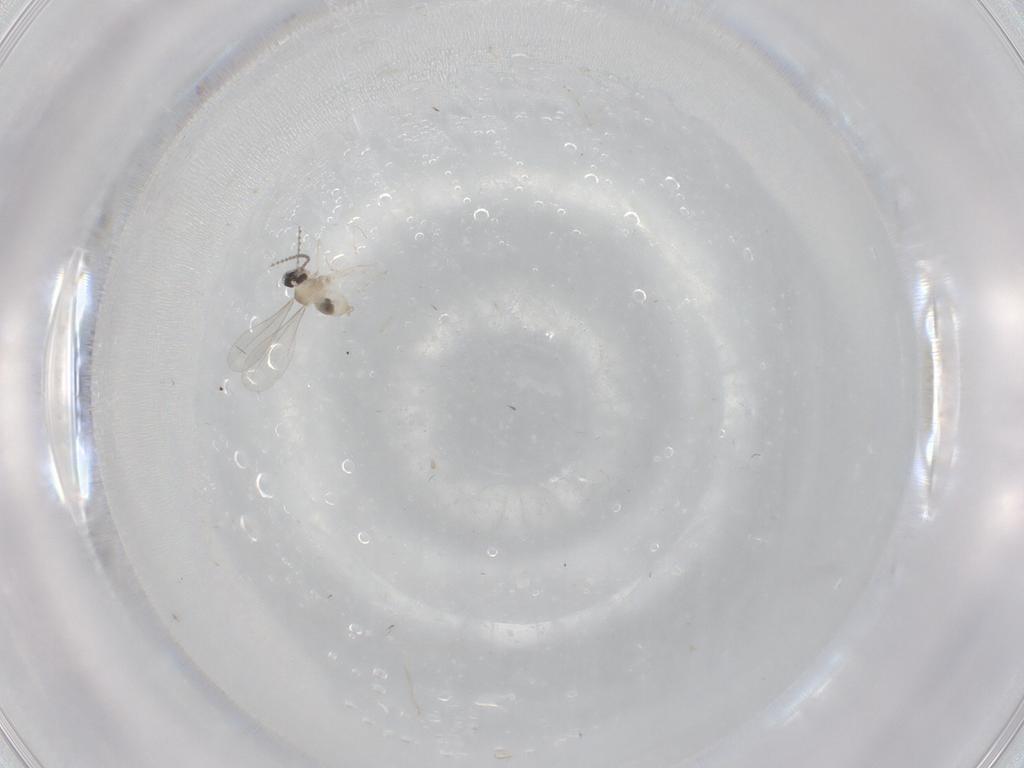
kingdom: Animalia
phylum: Arthropoda
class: Insecta
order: Diptera
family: Cecidomyiidae
